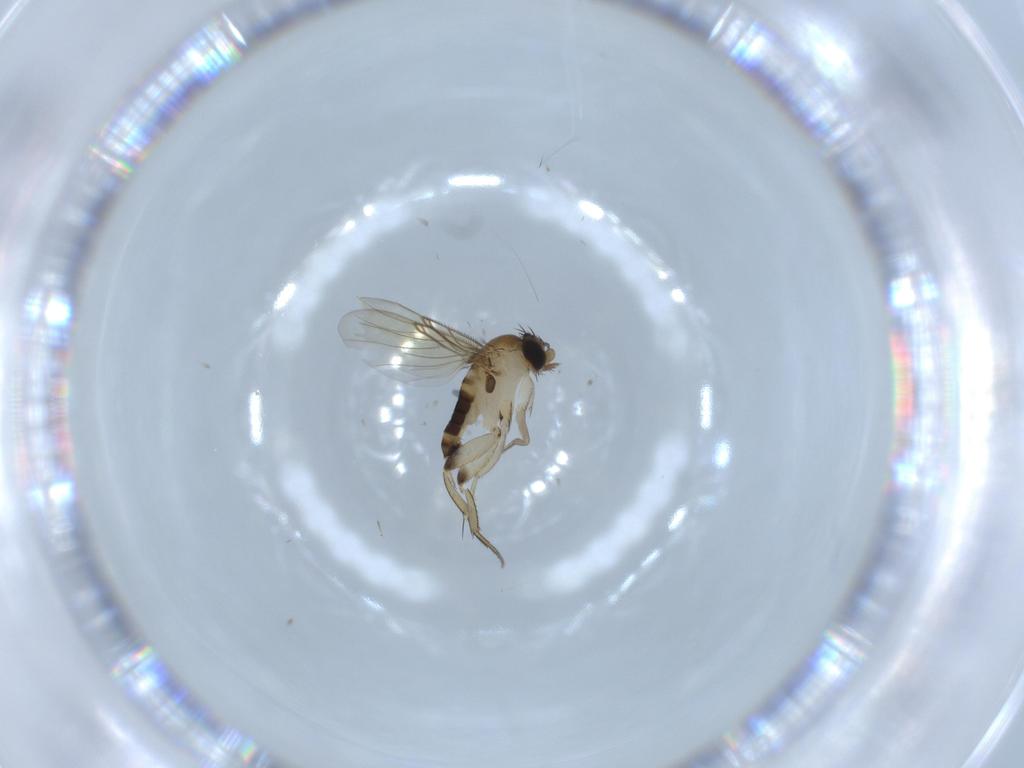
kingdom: Animalia
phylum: Arthropoda
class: Insecta
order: Diptera
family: Phoridae
